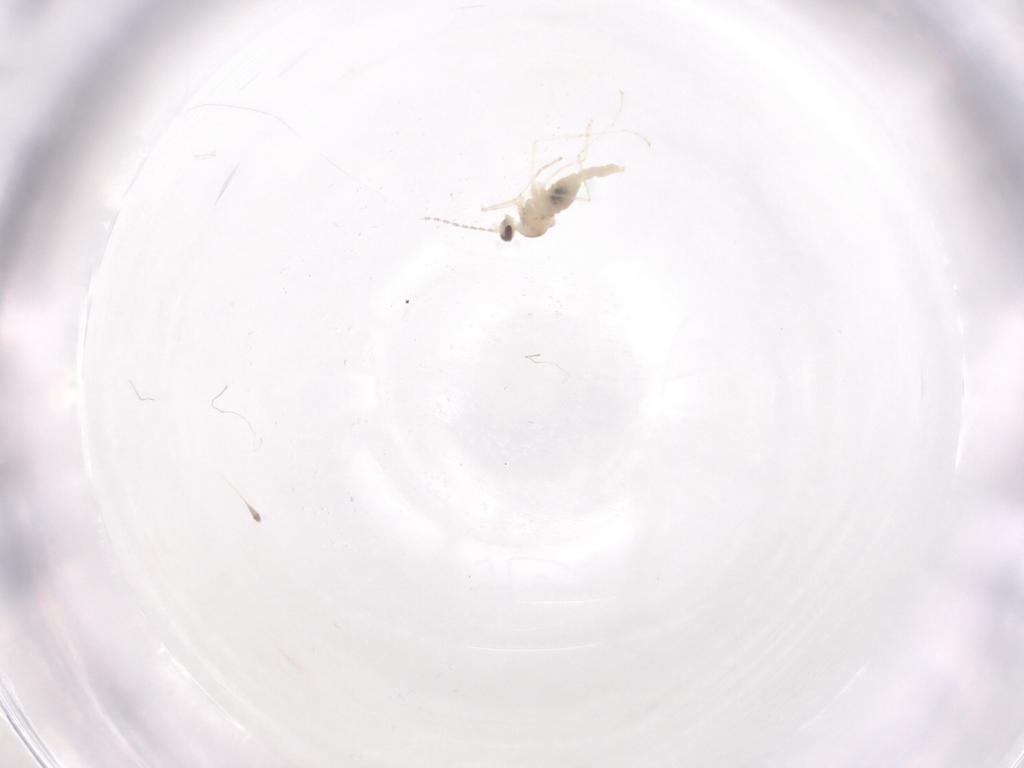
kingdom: Animalia
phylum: Arthropoda
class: Insecta
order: Diptera
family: Cecidomyiidae
